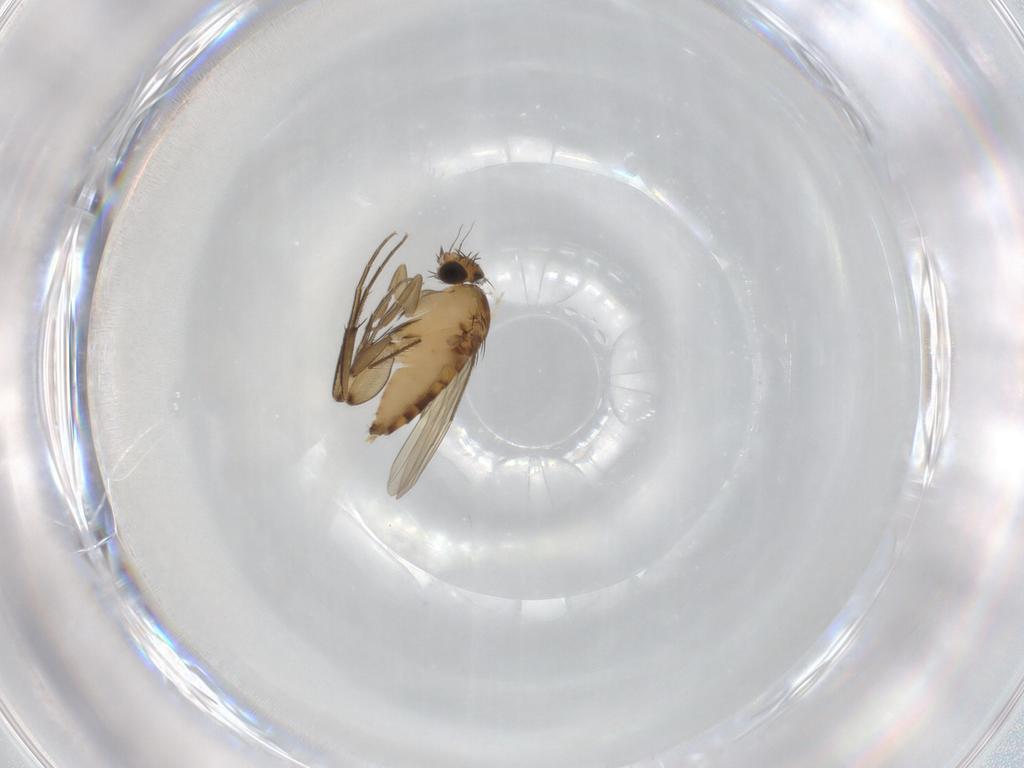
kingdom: Animalia
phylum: Arthropoda
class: Insecta
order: Diptera
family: Phoridae
